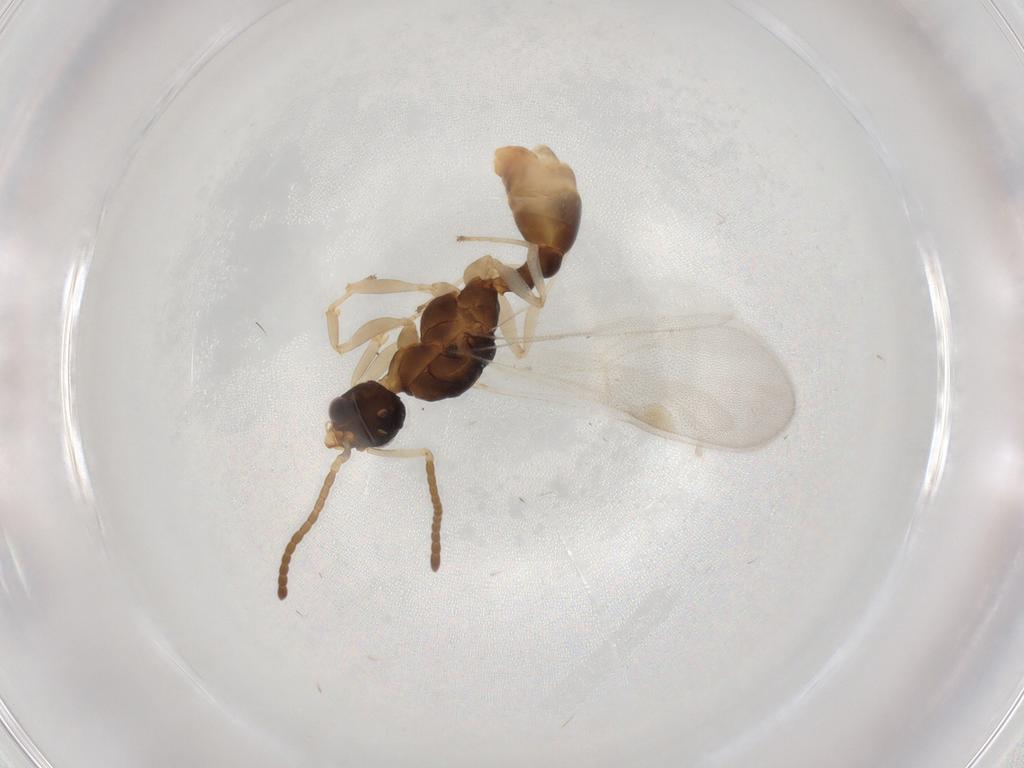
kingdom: Animalia
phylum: Arthropoda
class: Insecta
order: Hymenoptera
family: Formicidae
